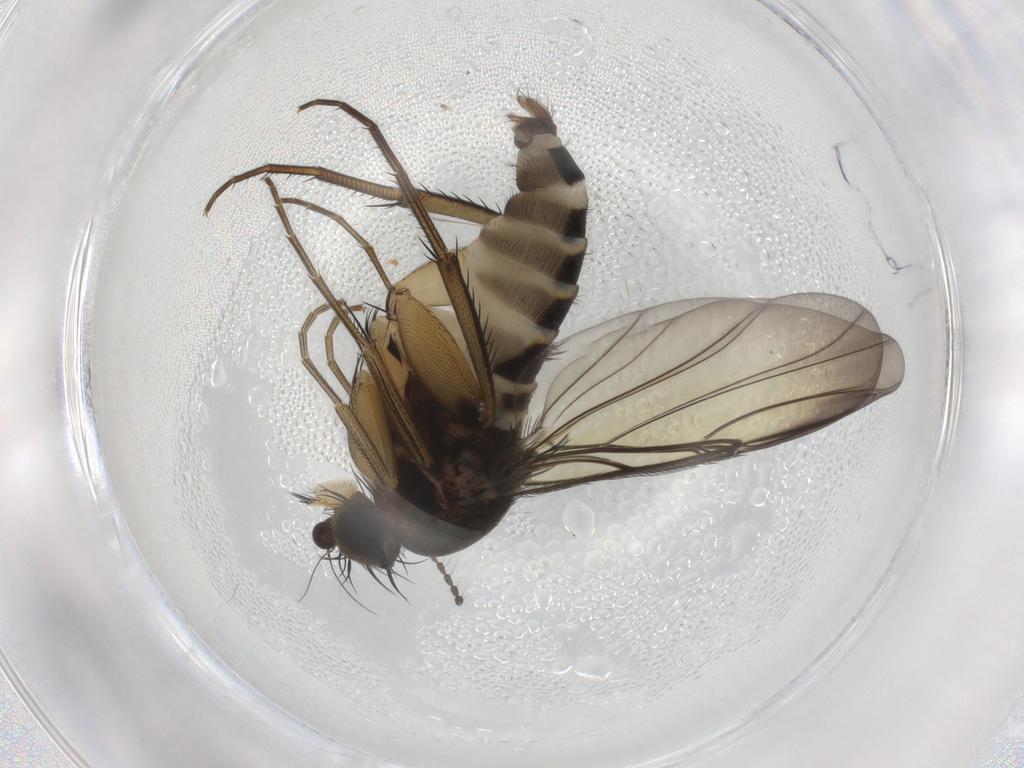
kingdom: Animalia
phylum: Arthropoda
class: Insecta
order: Diptera
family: Phoridae
